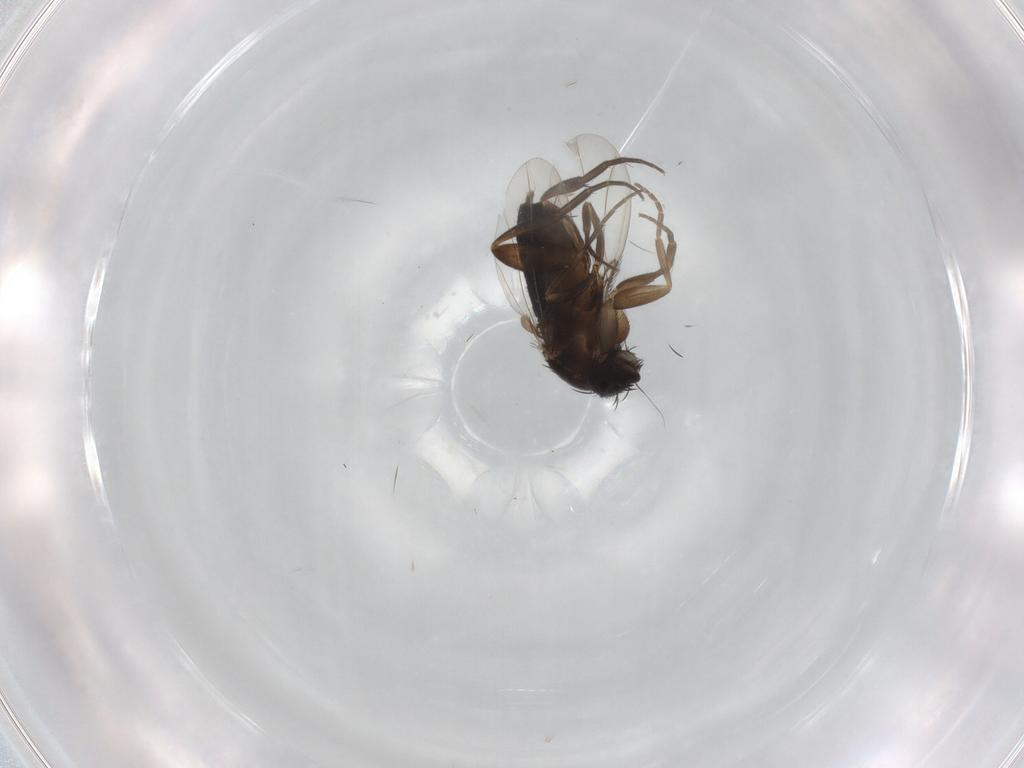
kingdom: Animalia
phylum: Arthropoda
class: Insecta
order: Diptera
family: Phoridae
